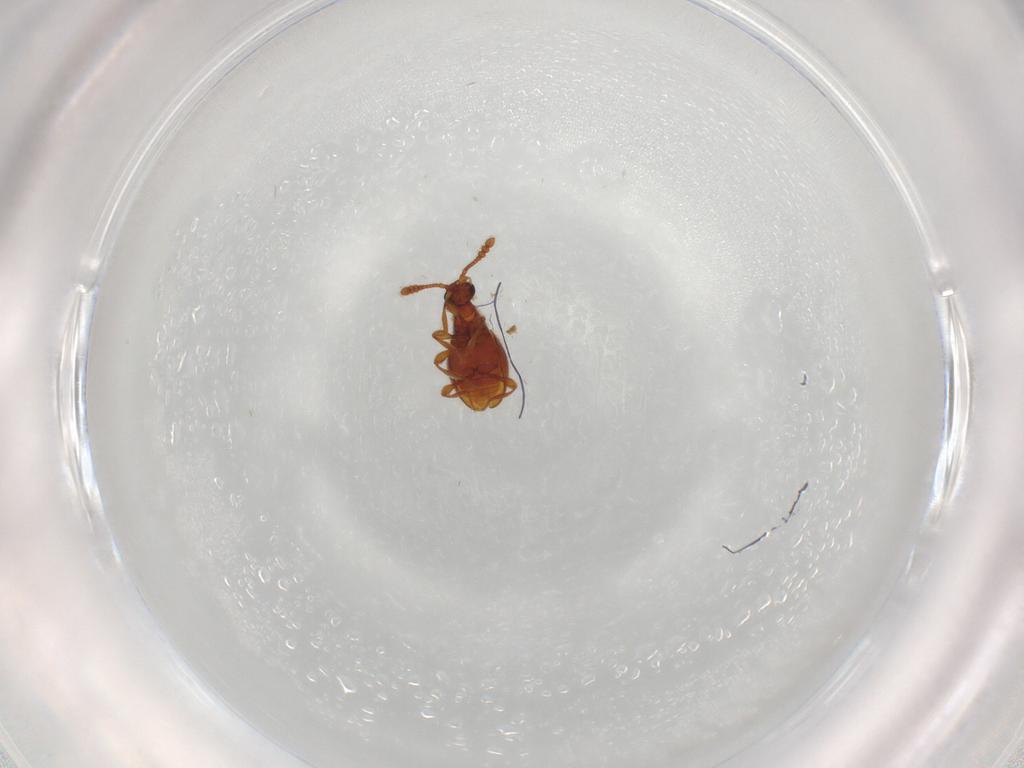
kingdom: Animalia
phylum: Arthropoda
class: Insecta
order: Coleoptera
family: Staphylinidae
